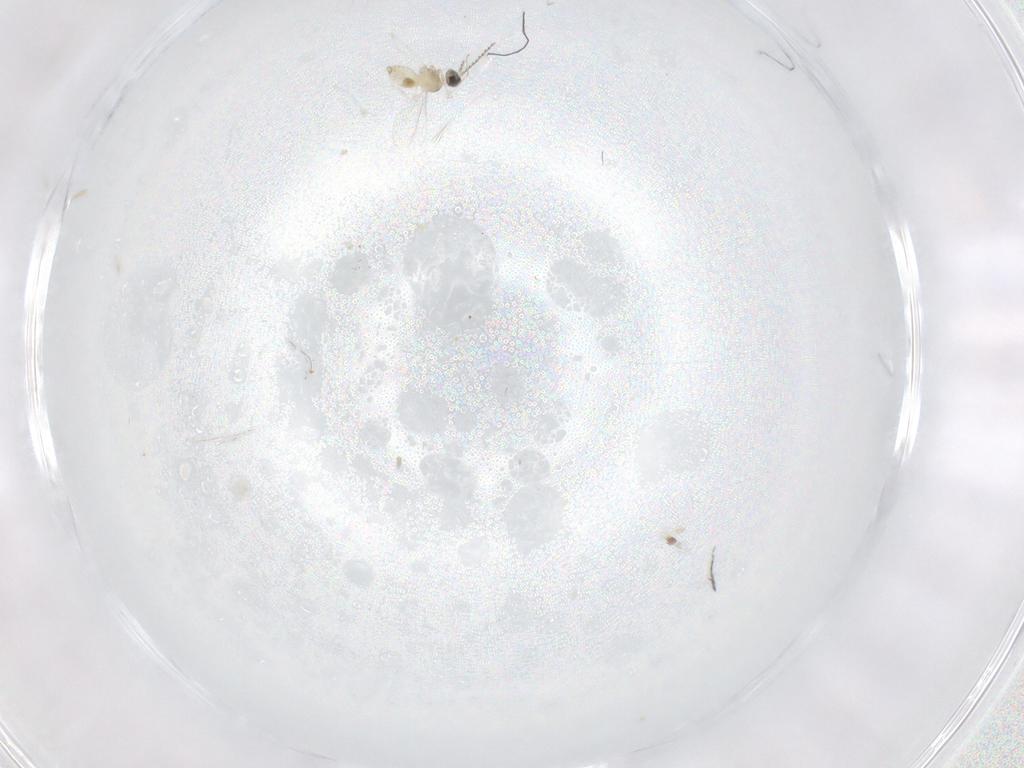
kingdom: Animalia
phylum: Arthropoda
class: Insecta
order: Diptera
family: Cecidomyiidae
